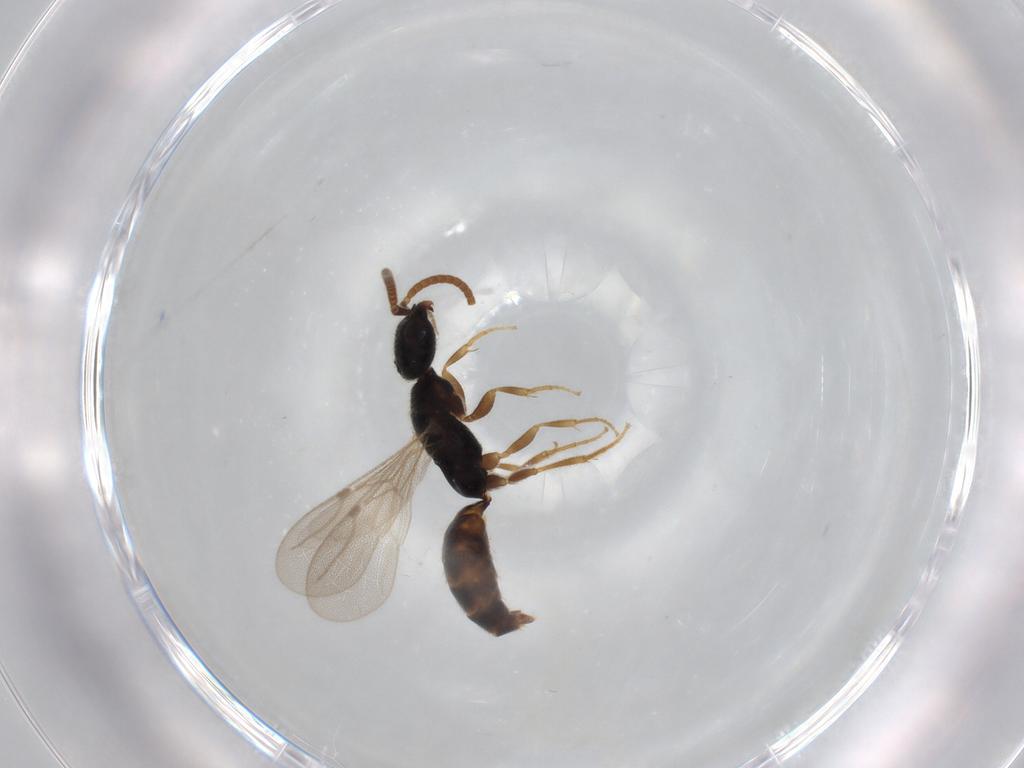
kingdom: Animalia
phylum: Arthropoda
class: Insecta
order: Hymenoptera
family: Bethylidae
